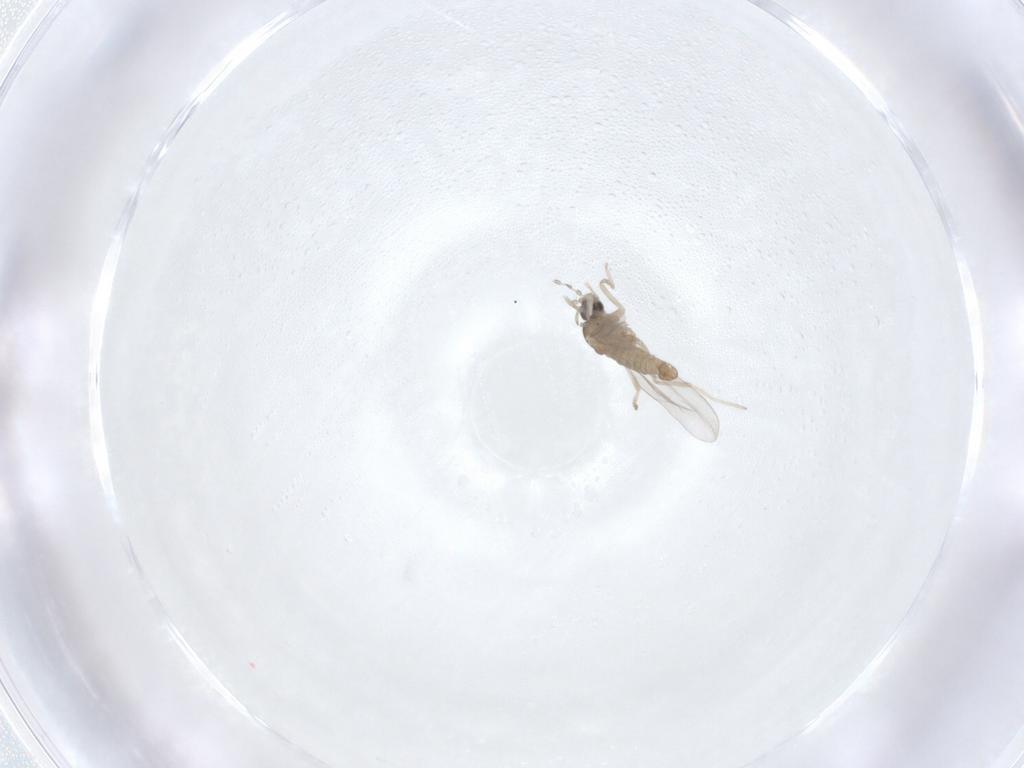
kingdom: Animalia
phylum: Arthropoda
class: Insecta
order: Diptera
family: Cecidomyiidae
